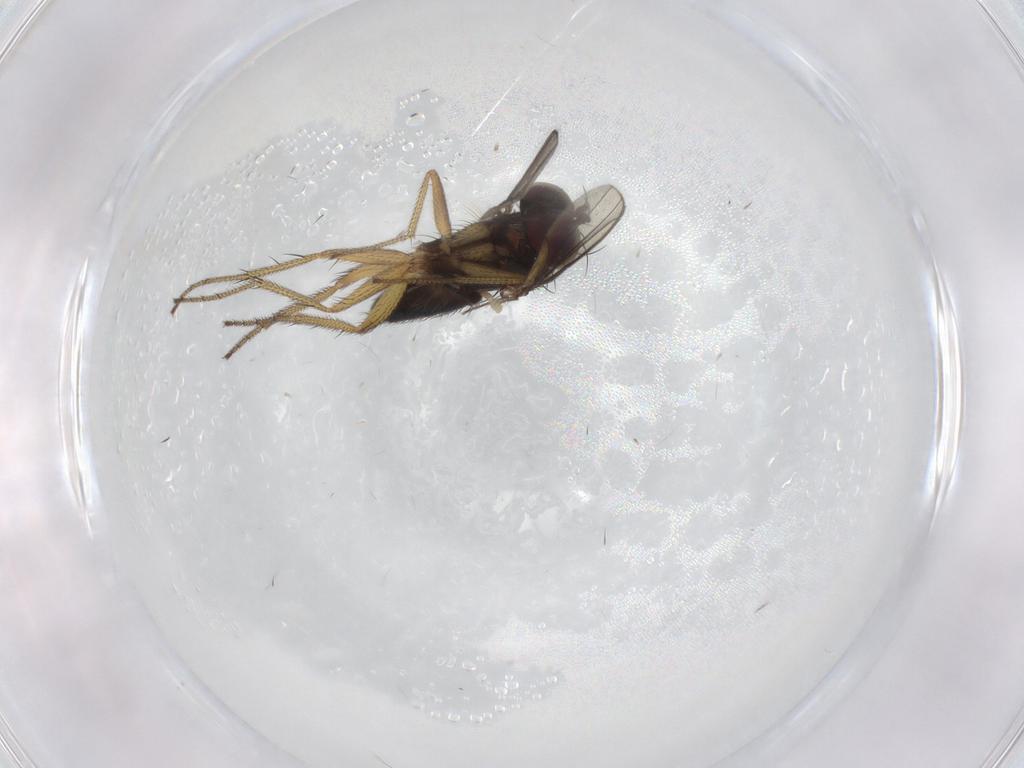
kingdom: Animalia
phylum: Arthropoda
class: Insecta
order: Diptera
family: Chironomidae
